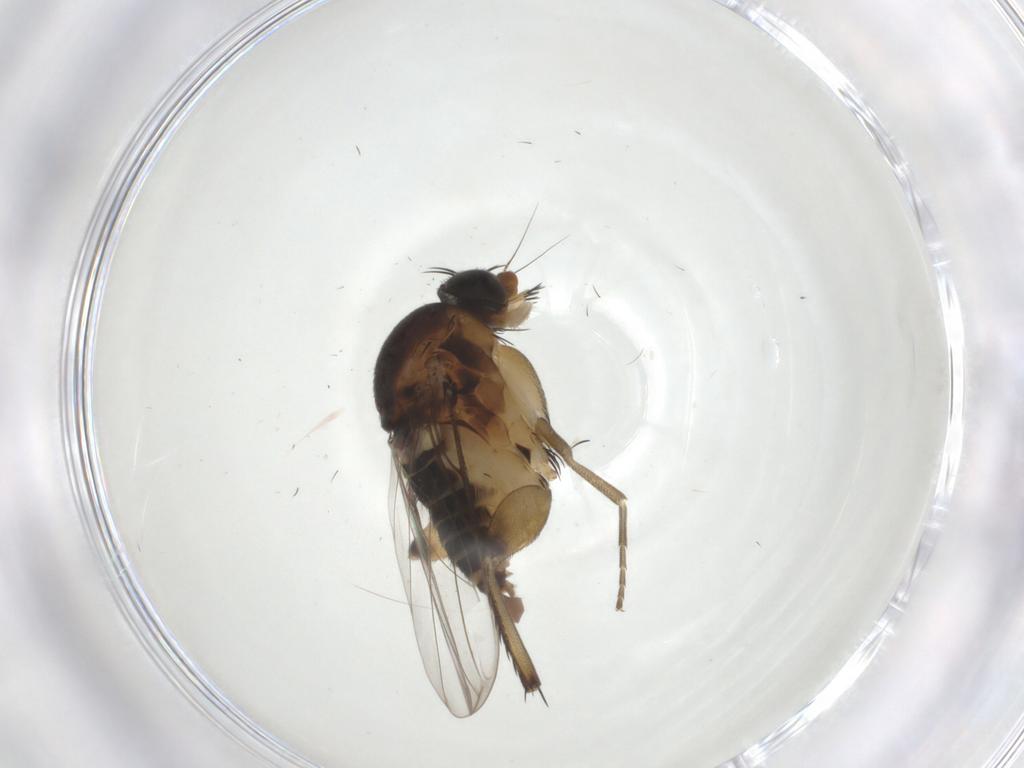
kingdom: Animalia
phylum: Arthropoda
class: Insecta
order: Diptera
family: Phoridae
